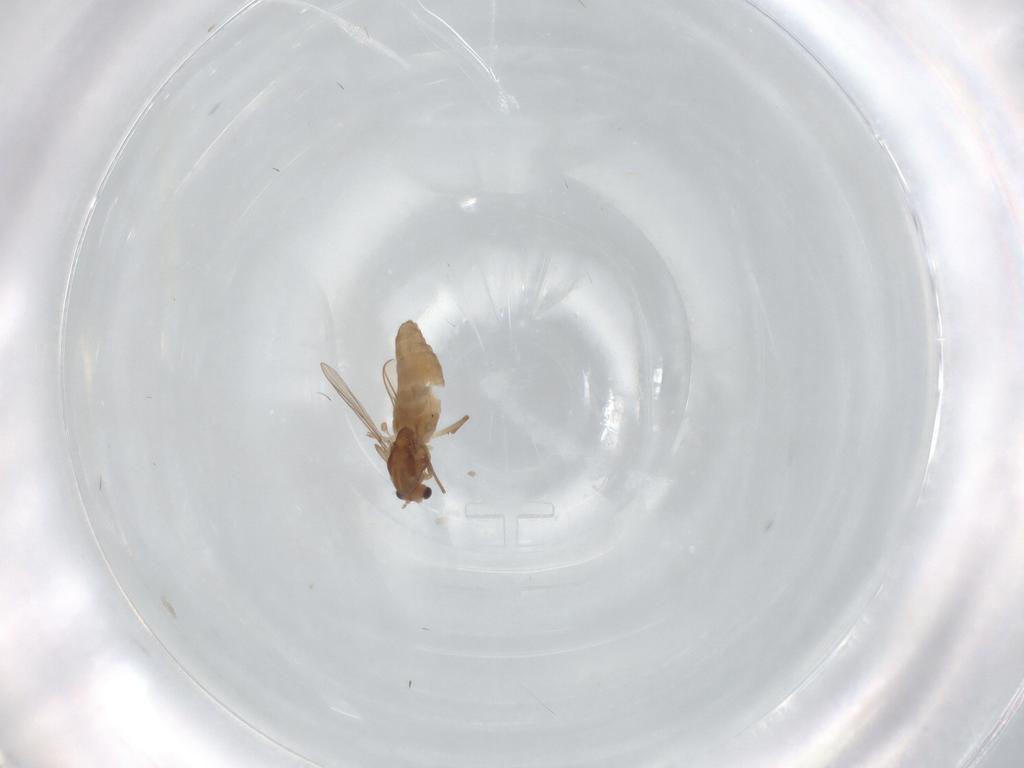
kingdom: Animalia
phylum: Arthropoda
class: Insecta
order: Diptera
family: Chironomidae
